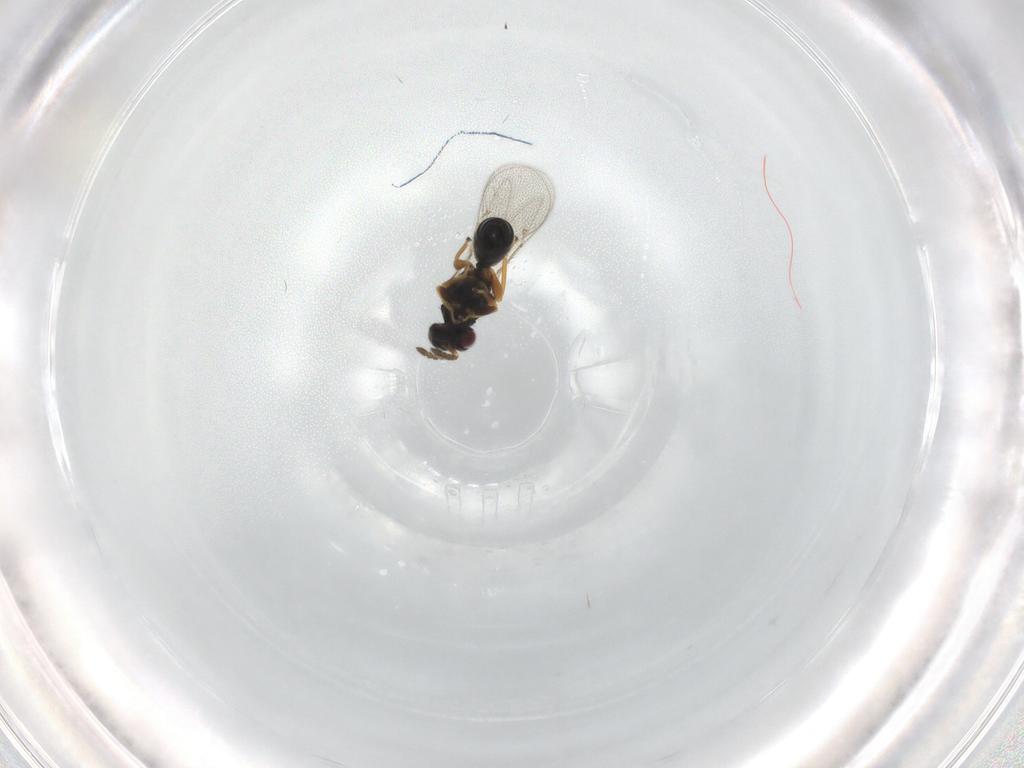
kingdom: Animalia
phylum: Arthropoda
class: Insecta
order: Hymenoptera
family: Eulophidae
